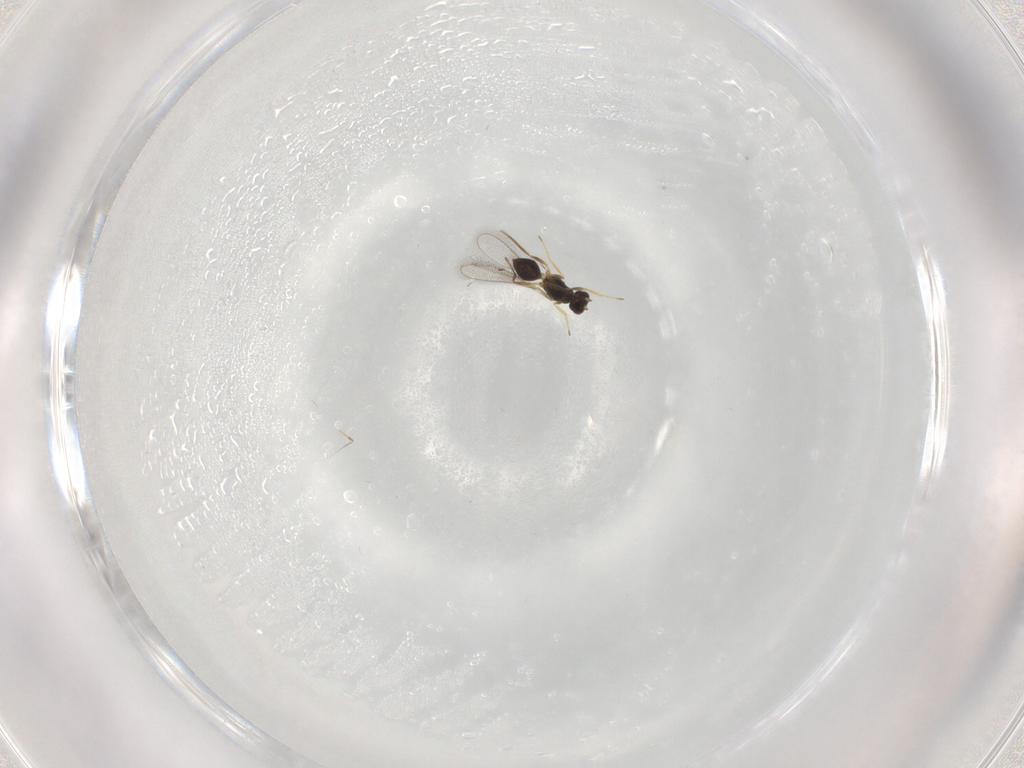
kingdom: Animalia
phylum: Arthropoda
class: Insecta
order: Hymenoptera
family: Mymaridae
